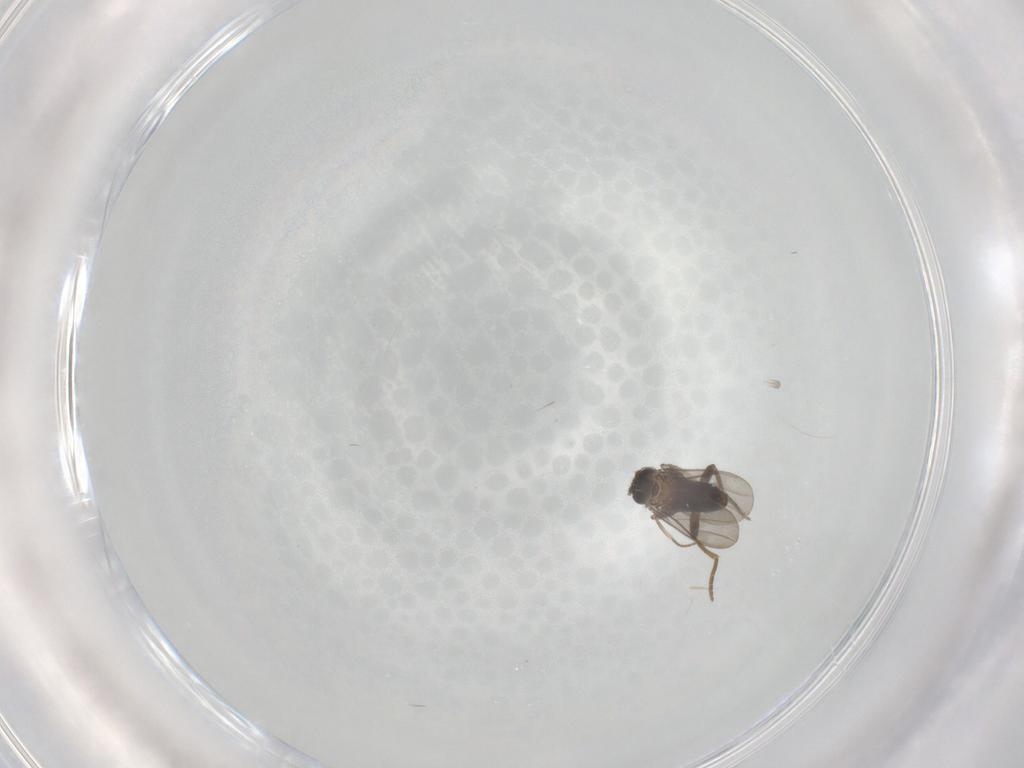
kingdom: Animalia
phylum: Arthropoda
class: Insecta
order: Diptera
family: Cecidomyiidae
